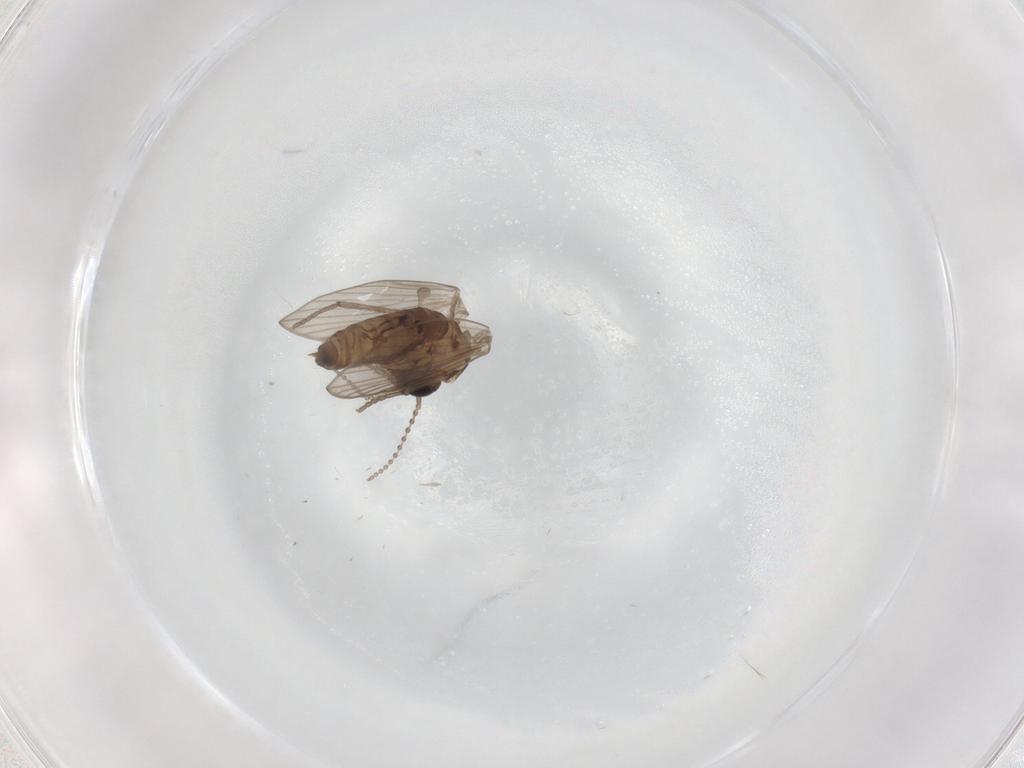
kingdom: Animalia
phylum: Arthropoda
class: Insecta
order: Diptera
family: Psychodidae
